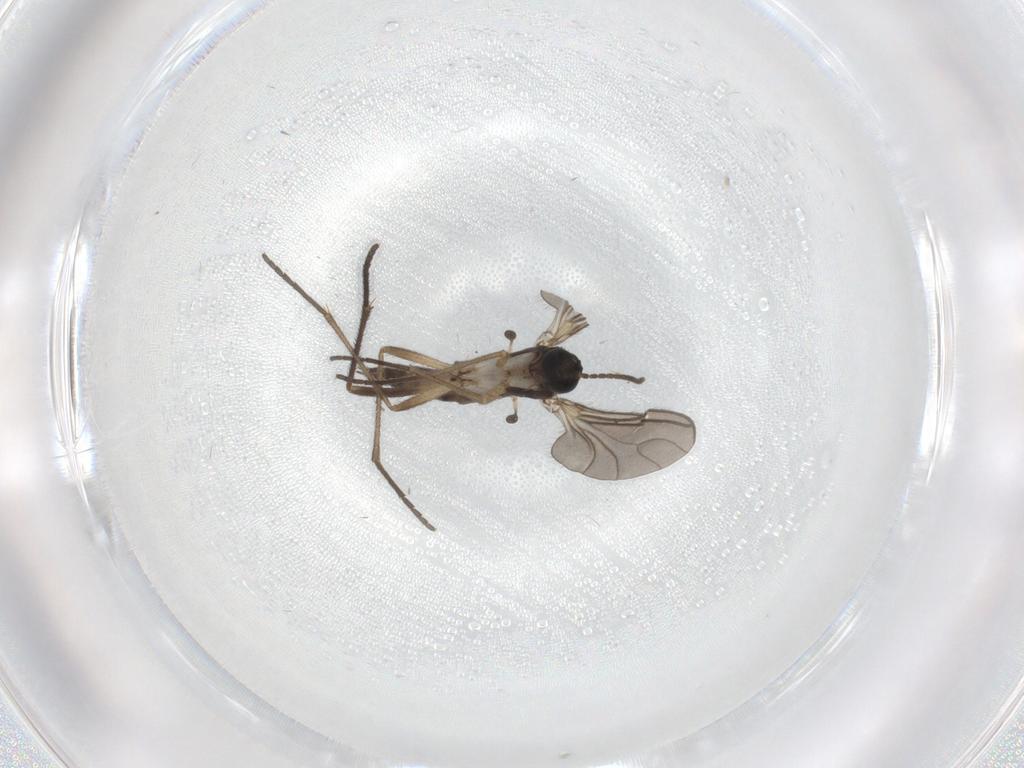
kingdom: Animalia
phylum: Arthropoda
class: Insecta
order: Diptera
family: Sciaridae
